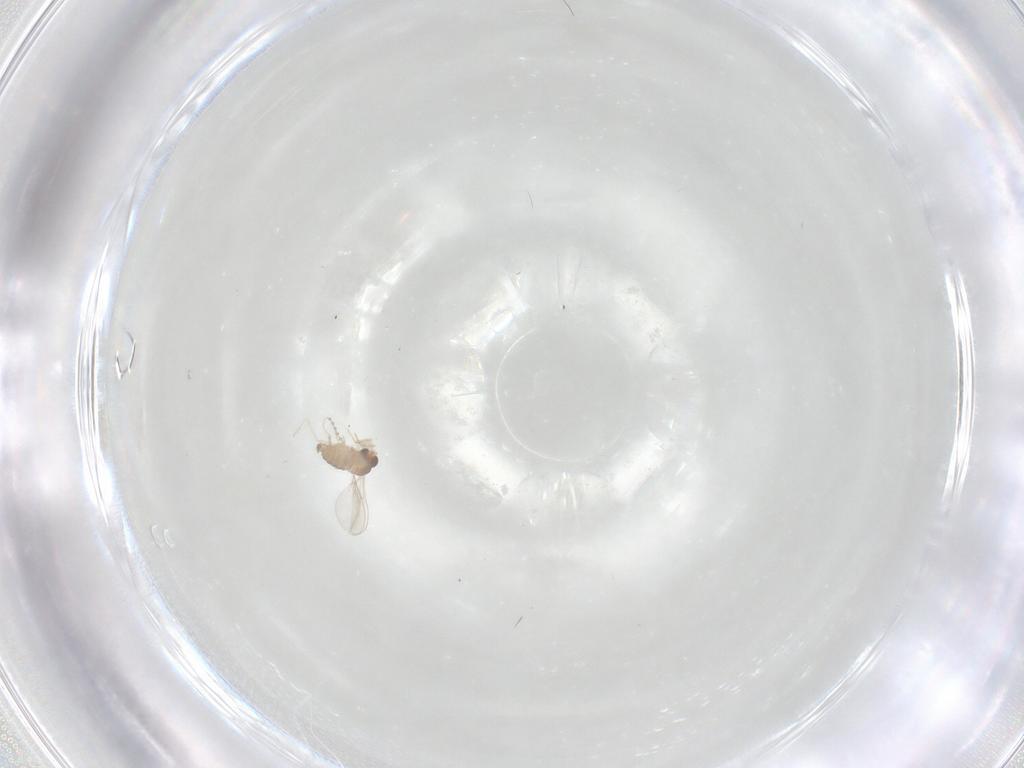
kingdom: Animalia
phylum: Arthropoda
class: Insecta
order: Diptera
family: Cecidomyiidae
